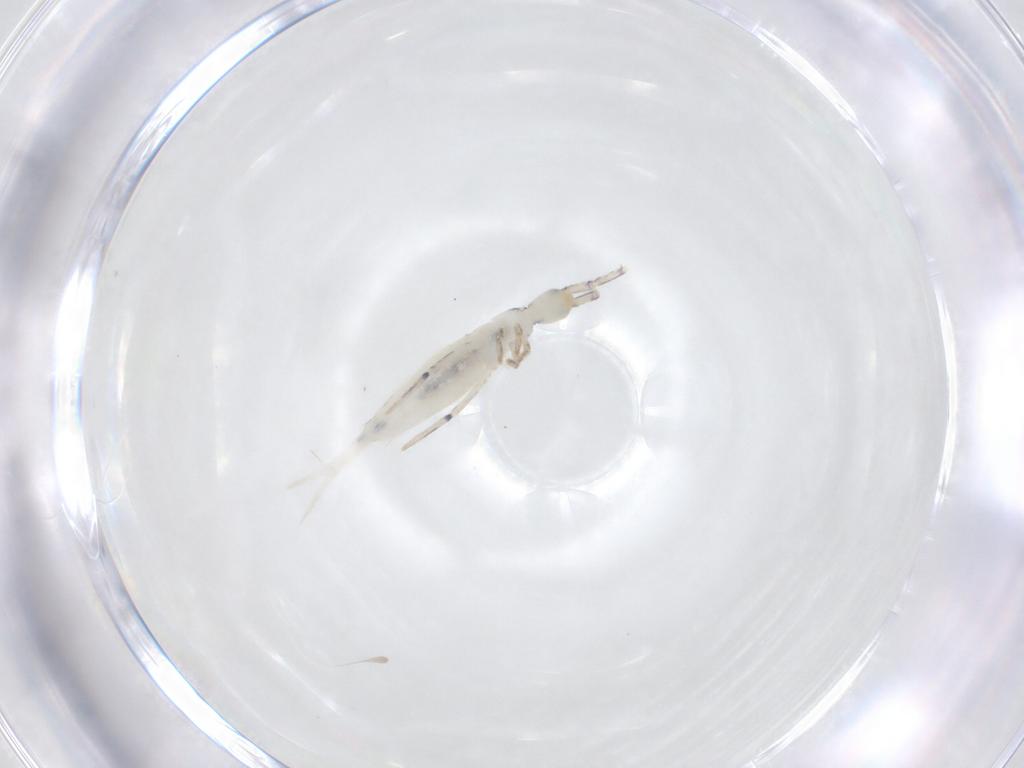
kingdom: Animalia
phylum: Arthropoda
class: Collembola
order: Entomobryomorpha
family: Entomobryidae
